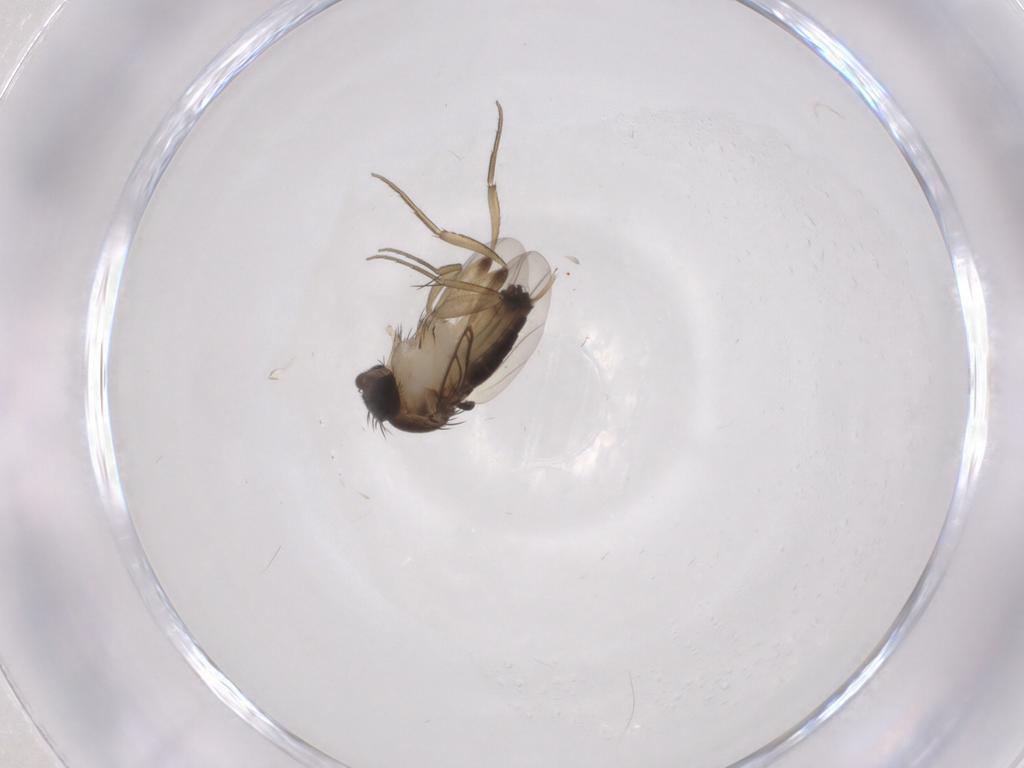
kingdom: Animalia
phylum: Arthropoda
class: Insecta
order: Diptera
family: Phoridae
